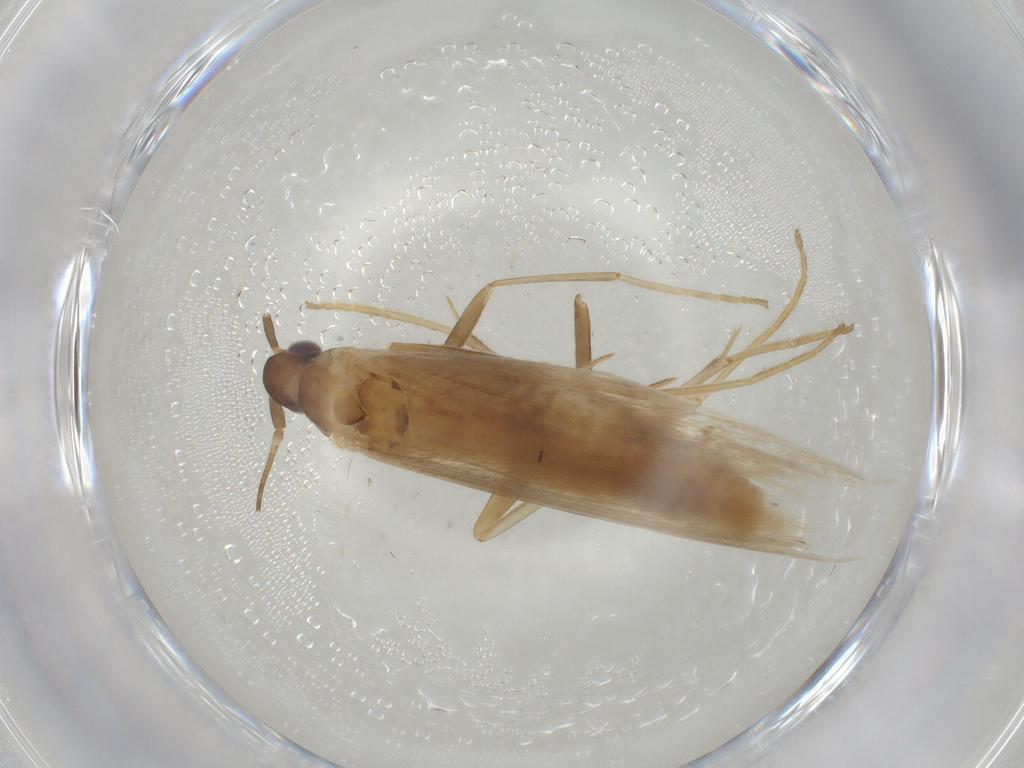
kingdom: Animalia
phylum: Arthropoda
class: Insecta
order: Lepidoptera
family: Coleophoridae
